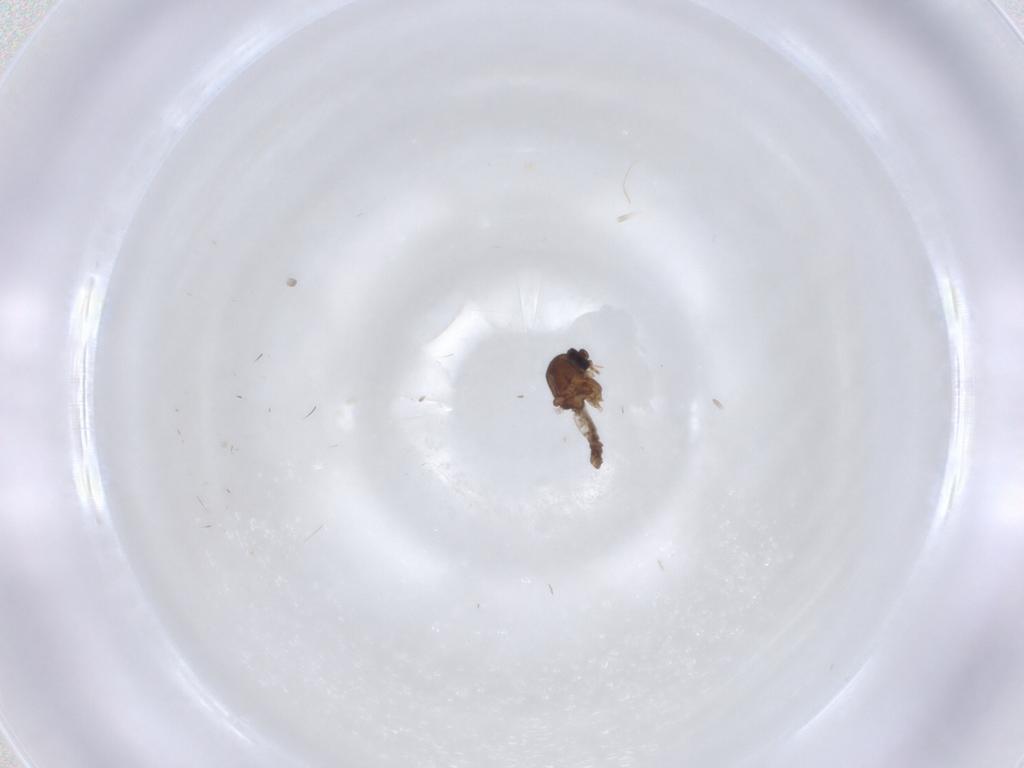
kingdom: Animalia
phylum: Arthropoda
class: Insecta
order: Diptera
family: Ceratopogonidae
